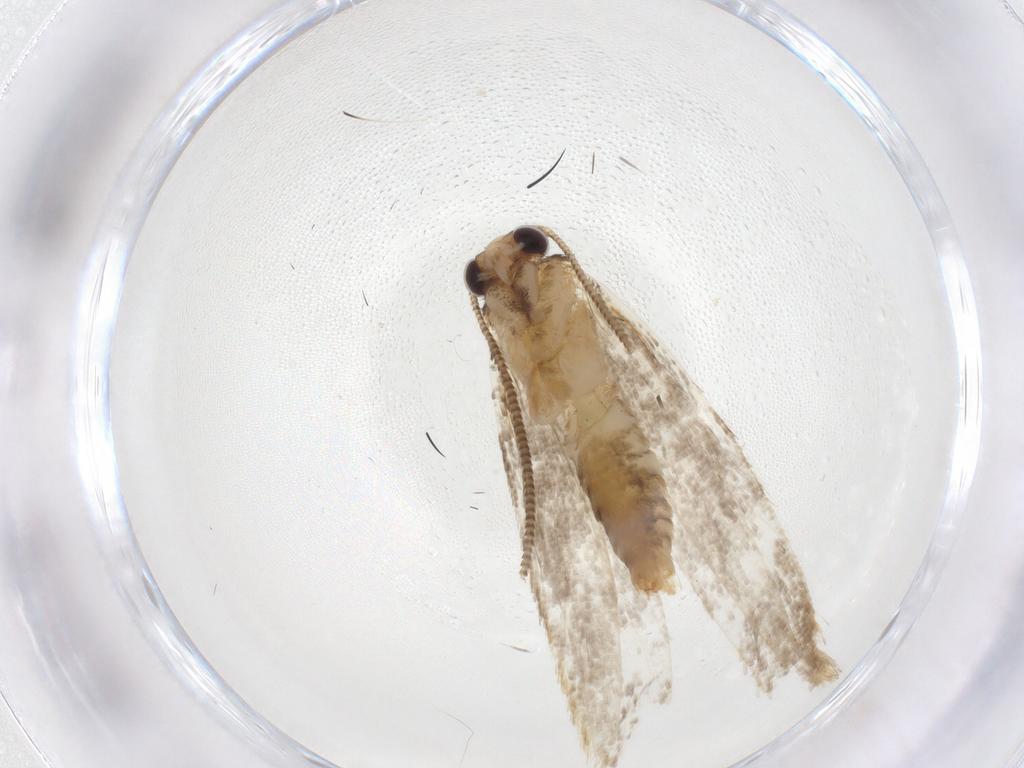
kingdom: Animalia
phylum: Arthropoda
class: Insecta
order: Lepidoptera
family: Tineidae
